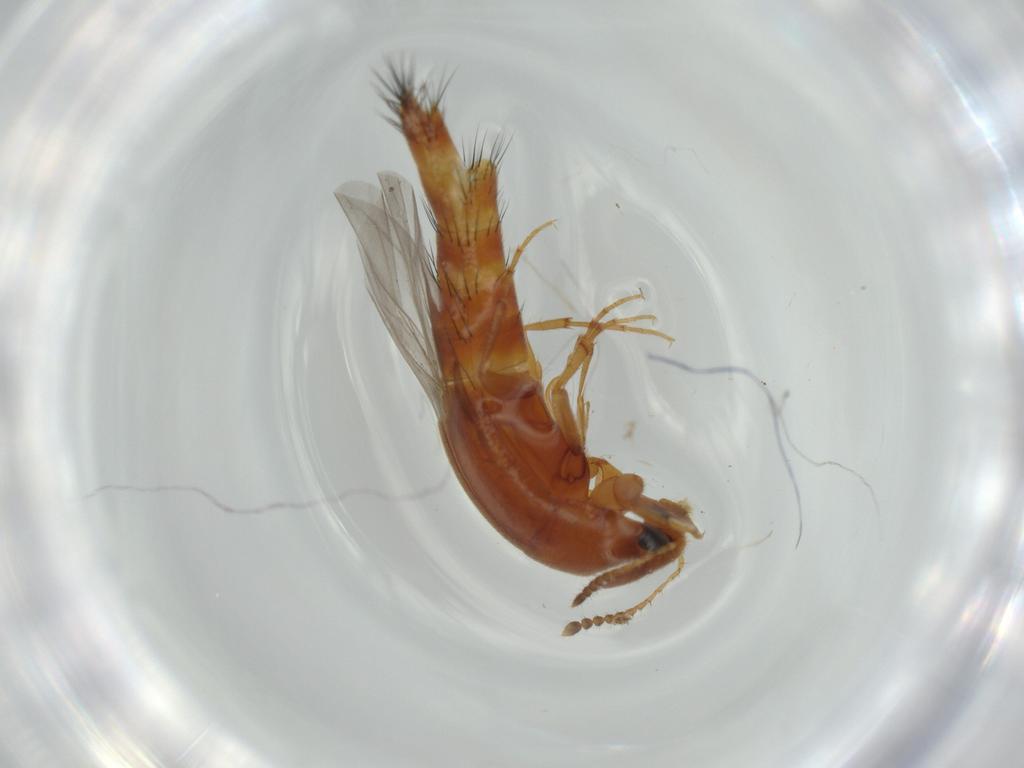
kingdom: Animalia
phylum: Arthropoda
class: Insecta
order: Coleoptera
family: Staphylinidae
